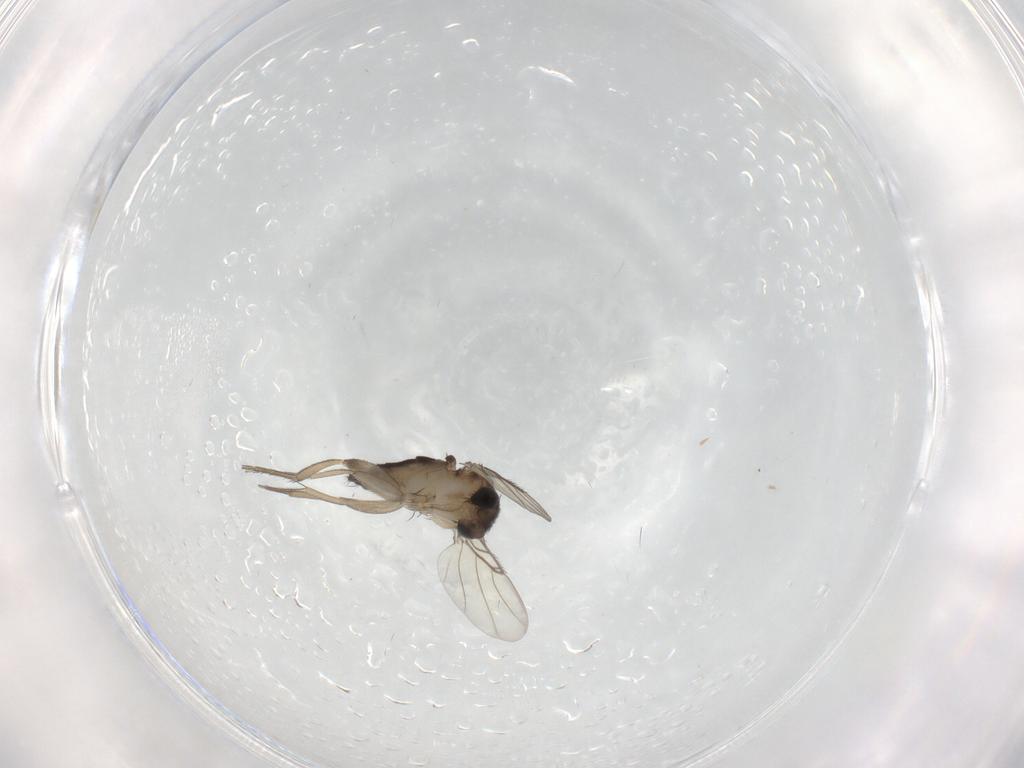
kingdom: Animalia
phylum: Arthropoda
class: Insecta
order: Diptera
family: Phoridae
